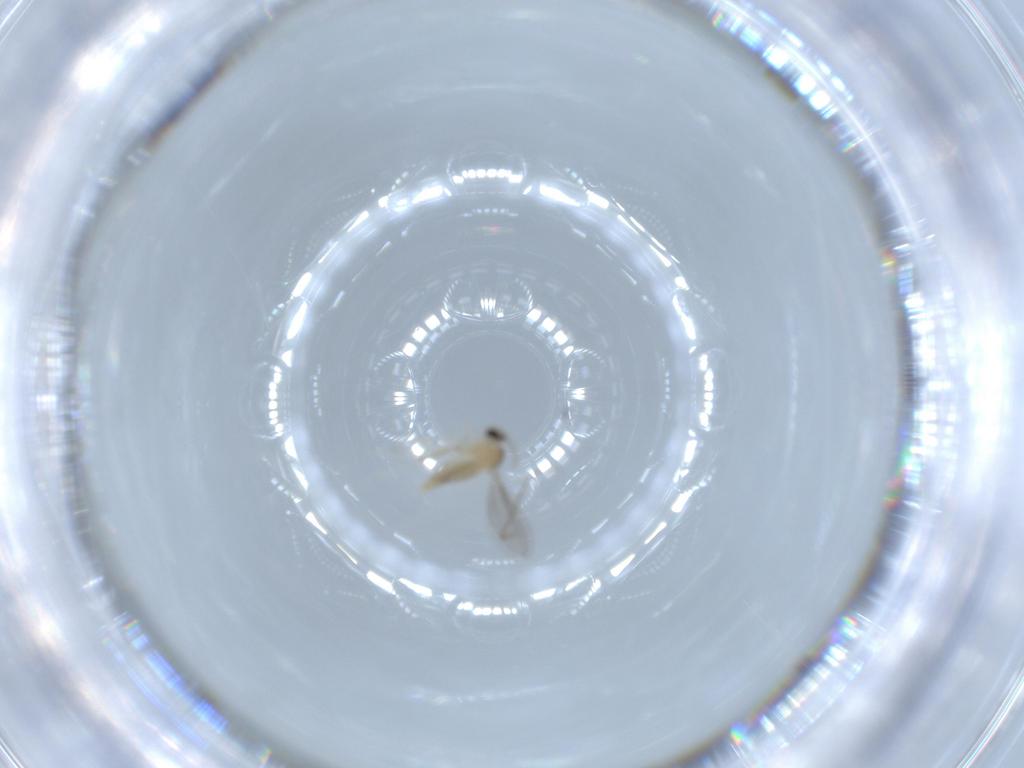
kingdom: Animalia
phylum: Arthropoda
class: Insecta
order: Diptera
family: Cecidomyiidae
